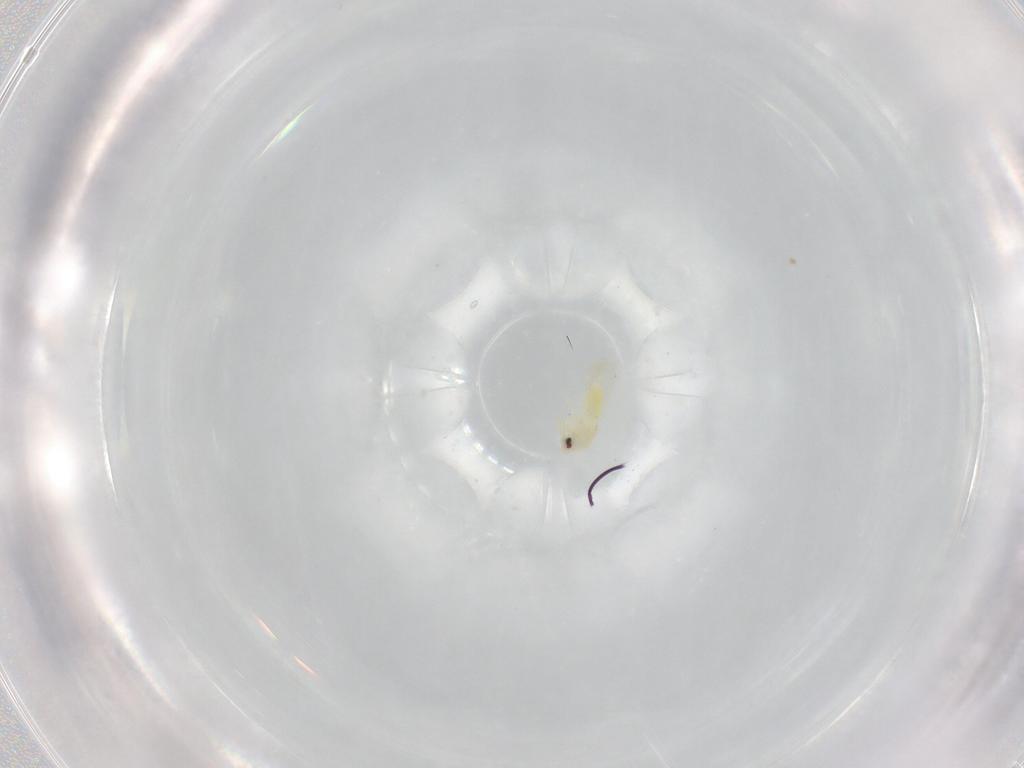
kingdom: Animalia
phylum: Arthropoda
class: Insecta
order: Hemiptera
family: Aleyrodidae
